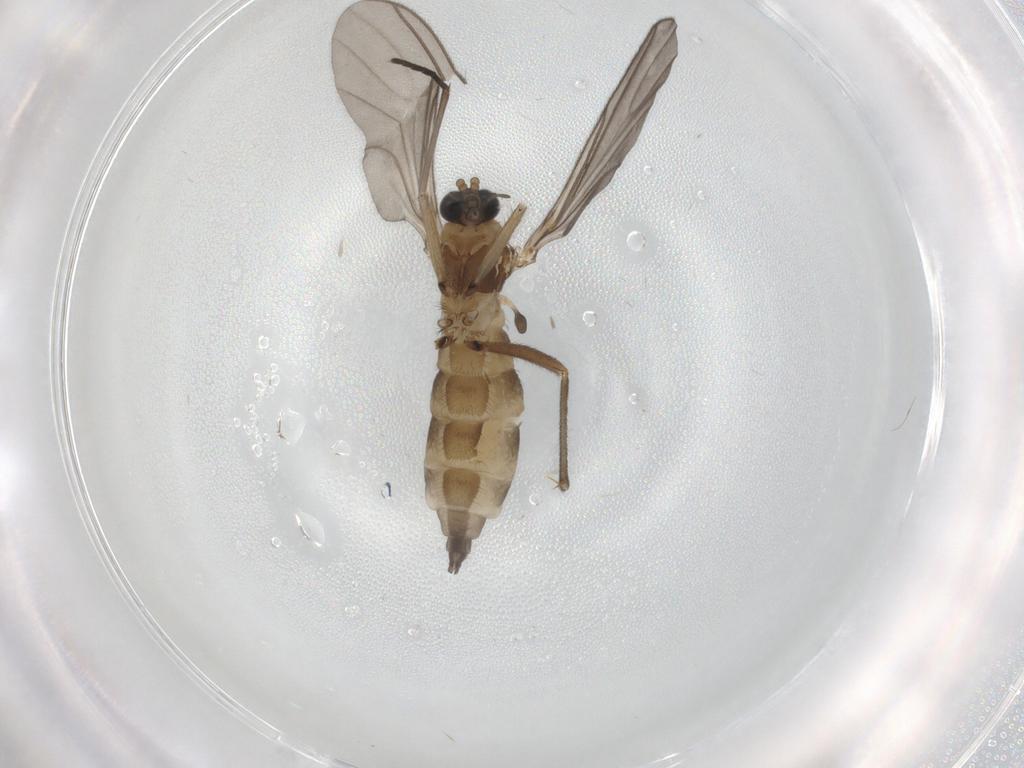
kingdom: Animalia
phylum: Arthropoda
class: Insecta
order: Diptera
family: Sciaridae
